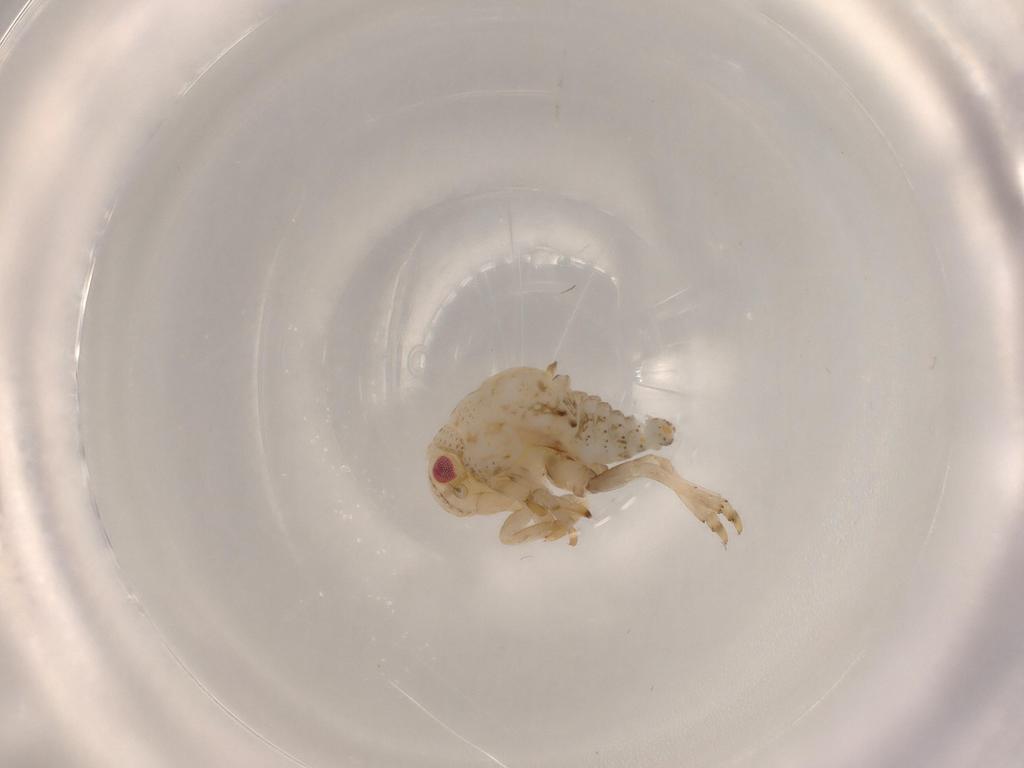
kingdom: Animalia
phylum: Arthropoda
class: Insecta
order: Hemiptera
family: Acanaloniidae
